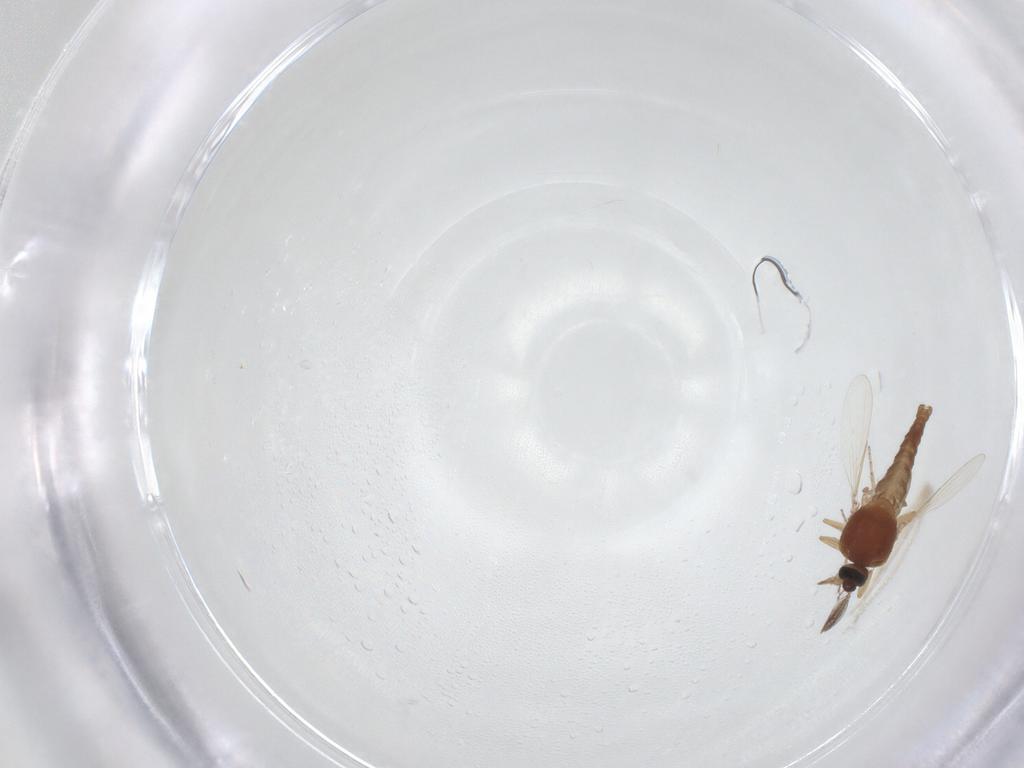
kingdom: Animalia
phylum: Arthropoda
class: Insecta
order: Diptera
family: Ceratopogonidae
